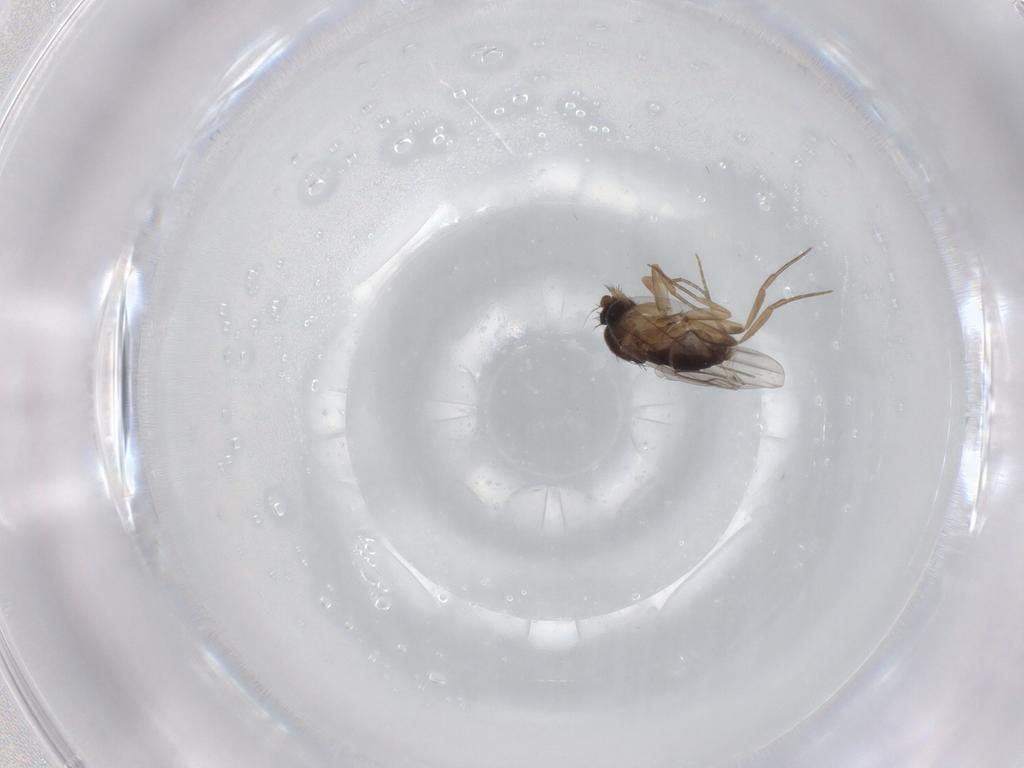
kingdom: Animalia
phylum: Arthropoda
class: Insecta
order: Diptera
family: Phoridae
